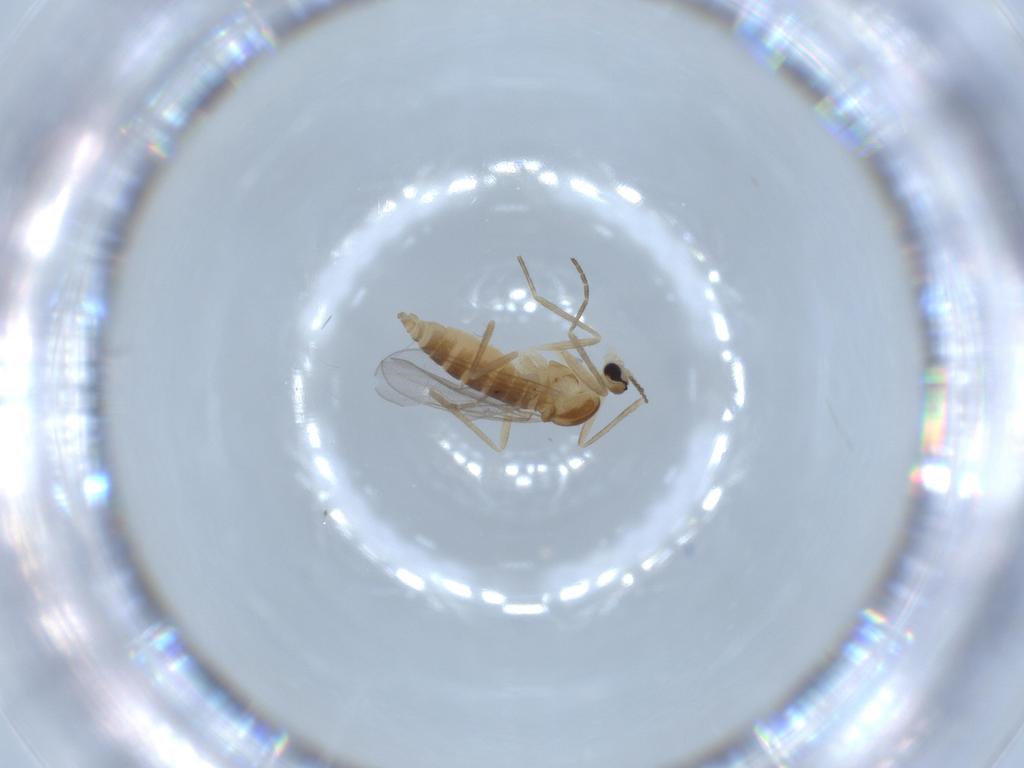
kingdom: Animalia
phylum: Arthropoda
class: Insecta
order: Diptera
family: Cecidomyiidae
